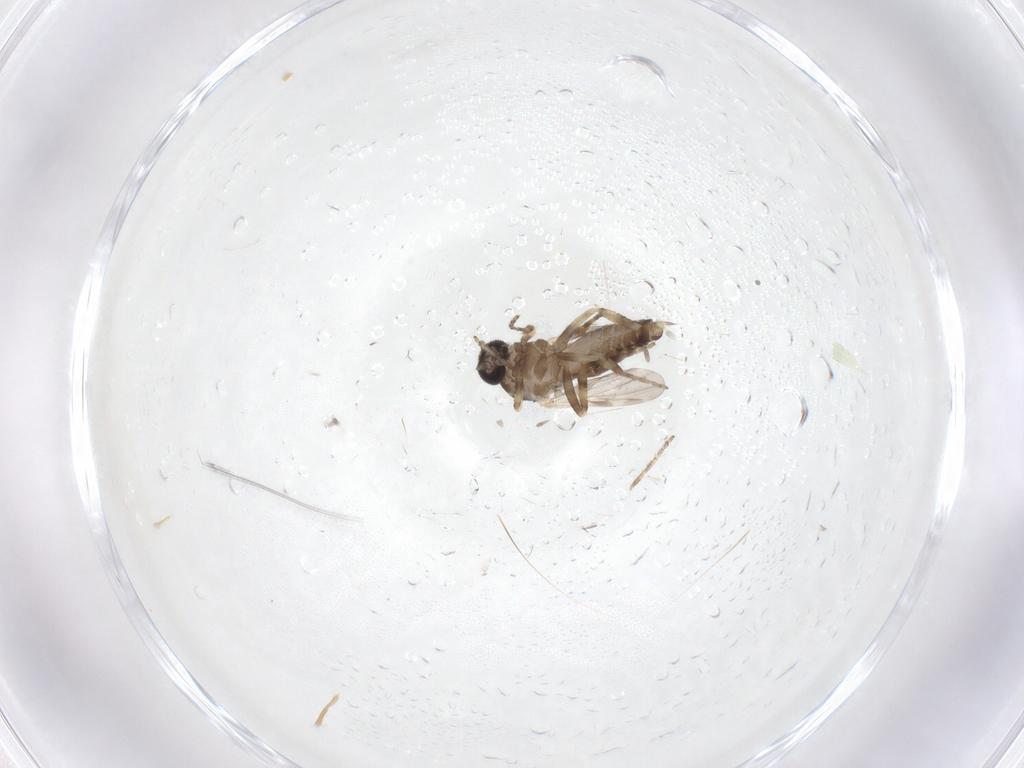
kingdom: Animalia
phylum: Arthropoda
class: Insecta
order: Diptera
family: Ceratopogonidae
